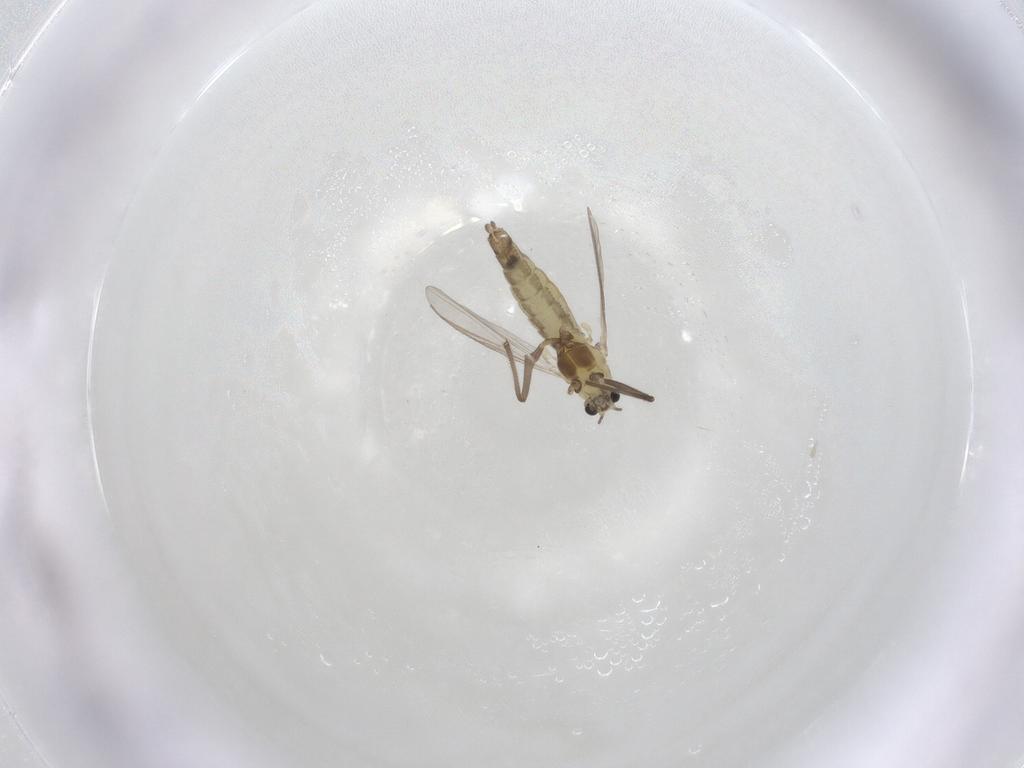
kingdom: Animalia
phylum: Arthropoda
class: Insecta
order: Diptera
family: Chironomidae
